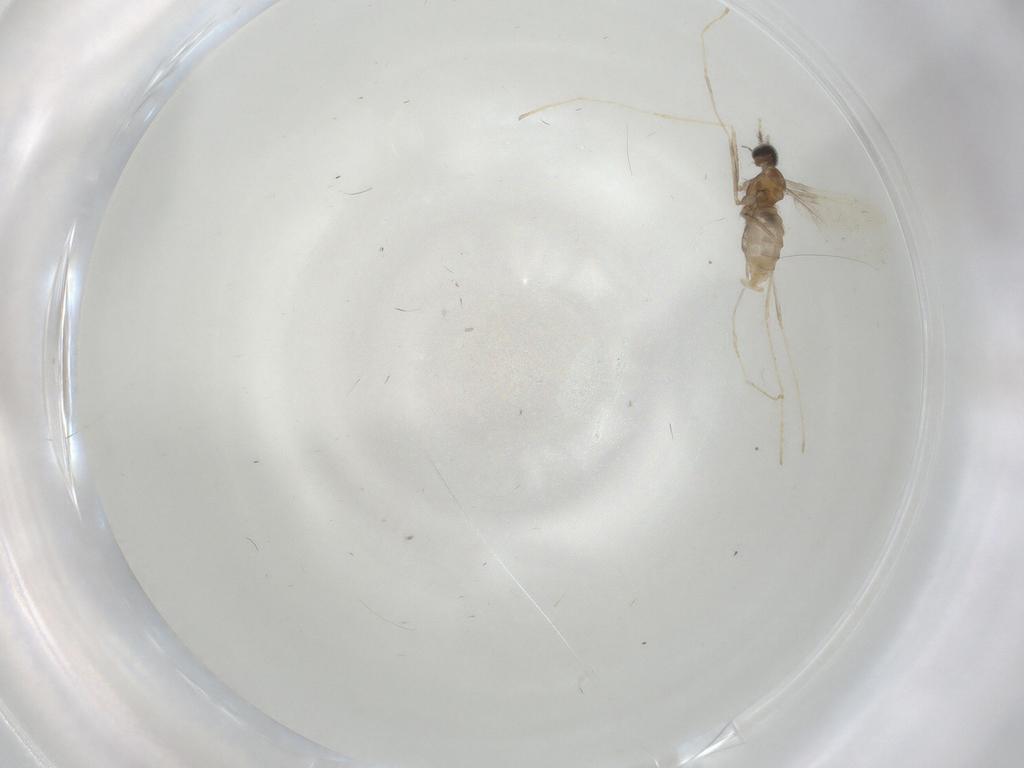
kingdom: Animalia
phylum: Arthropoda
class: Insecta
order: Diptera
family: Cecidomyiidae
